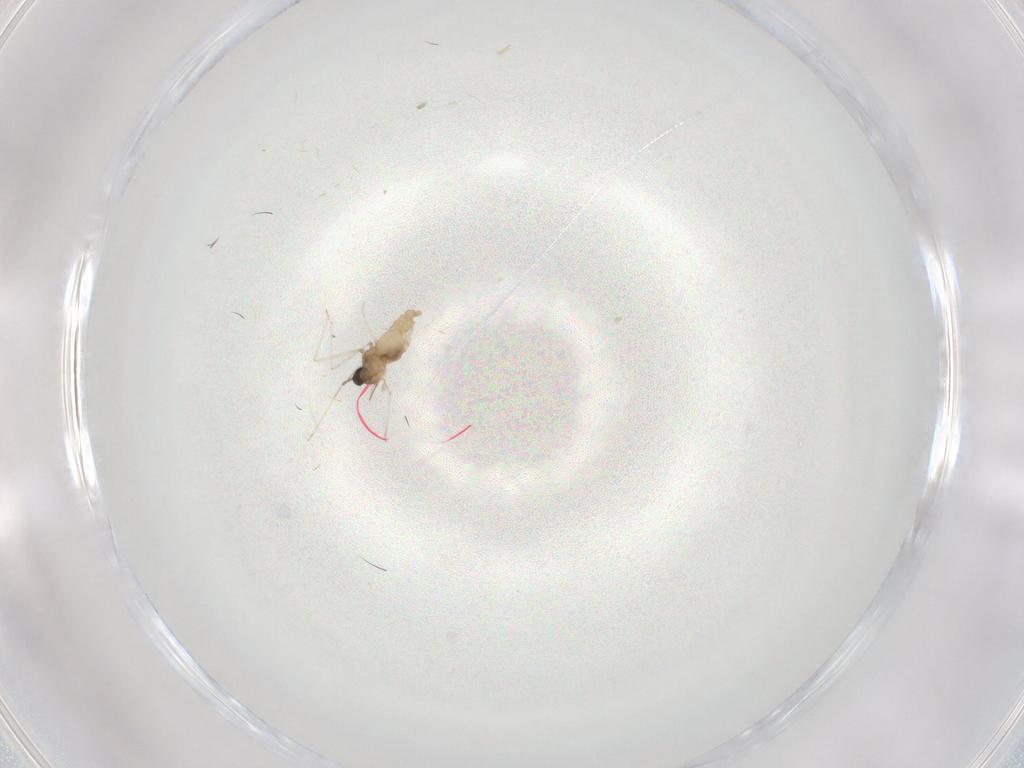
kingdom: Animalia
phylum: Arthropoda
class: Insecta
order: Diptera
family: Cecidomyiidae
